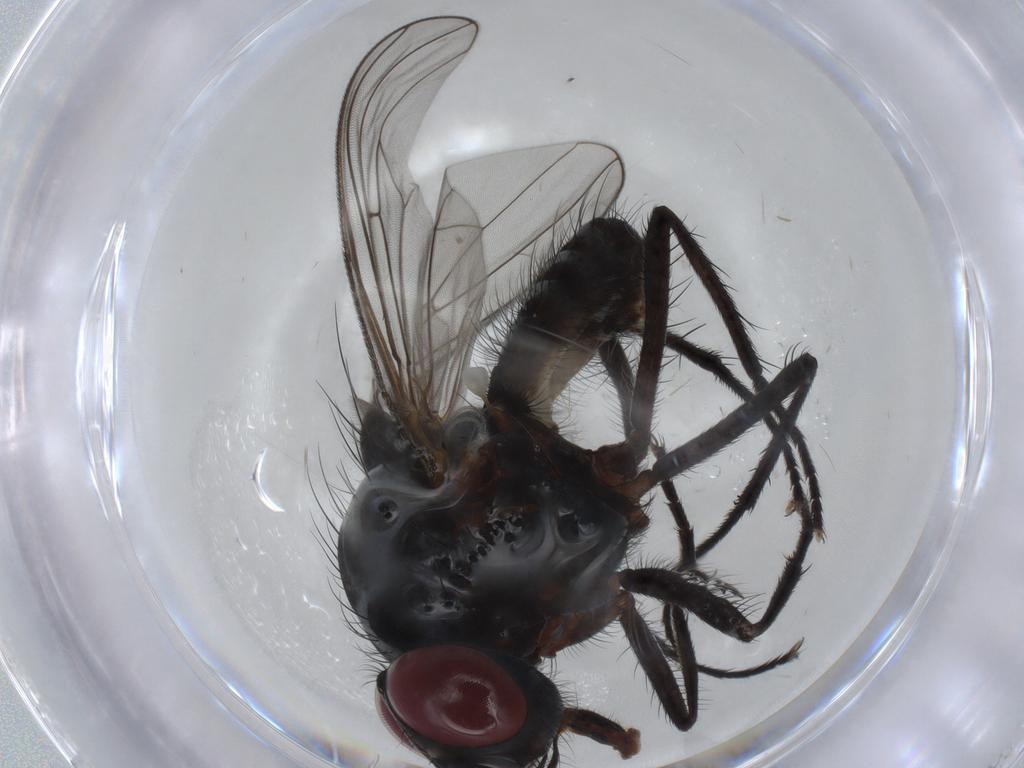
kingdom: Animalia
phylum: Arthropoda
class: Insecta
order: Diptera
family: Anthomyiidae
